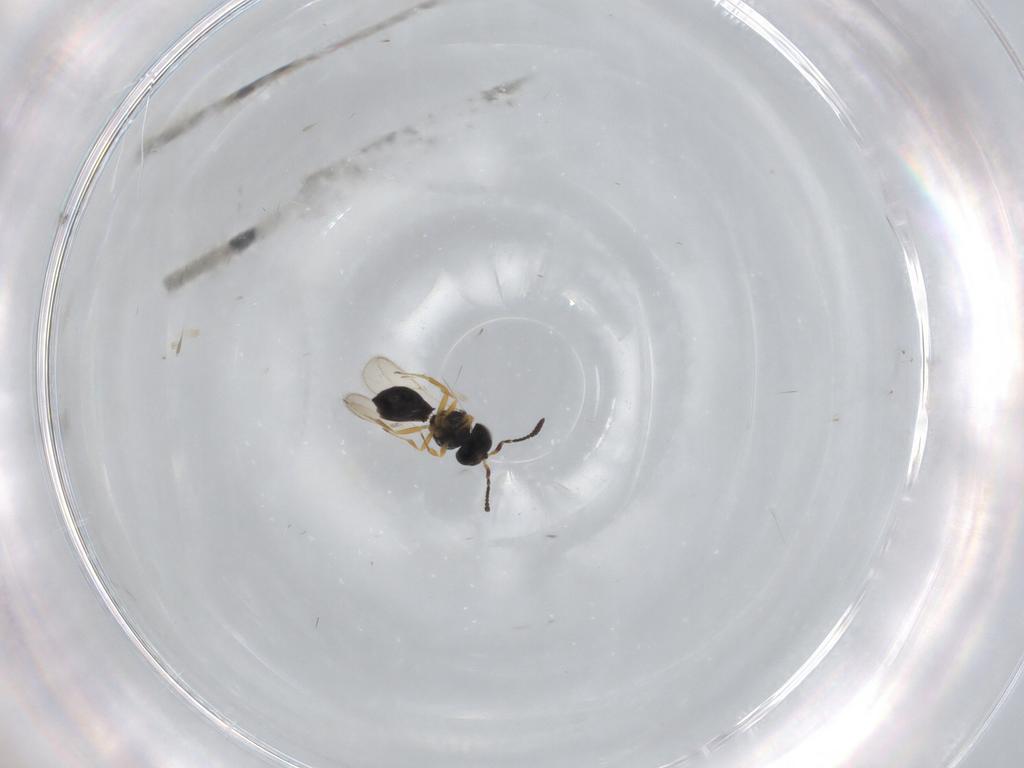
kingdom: Animalia
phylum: Arthropoda
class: Insecta
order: Hymenoptera
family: Scelionidae
